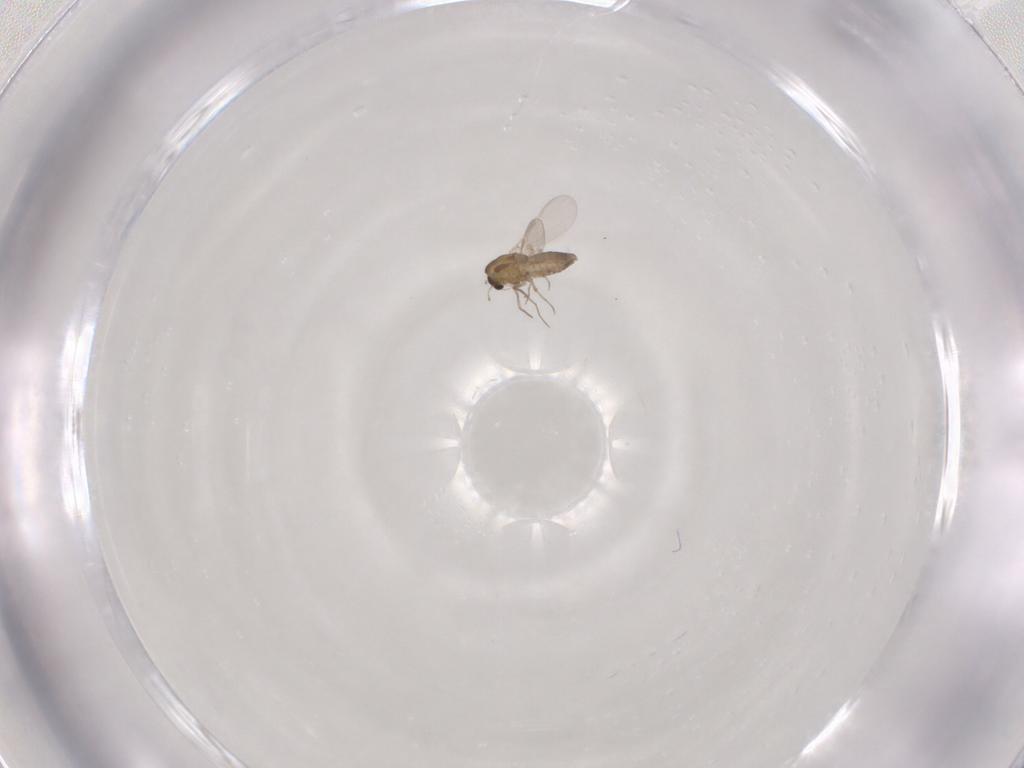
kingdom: Animalia
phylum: Arthropoda
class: Insecta
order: Diptera
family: Chironomidae
